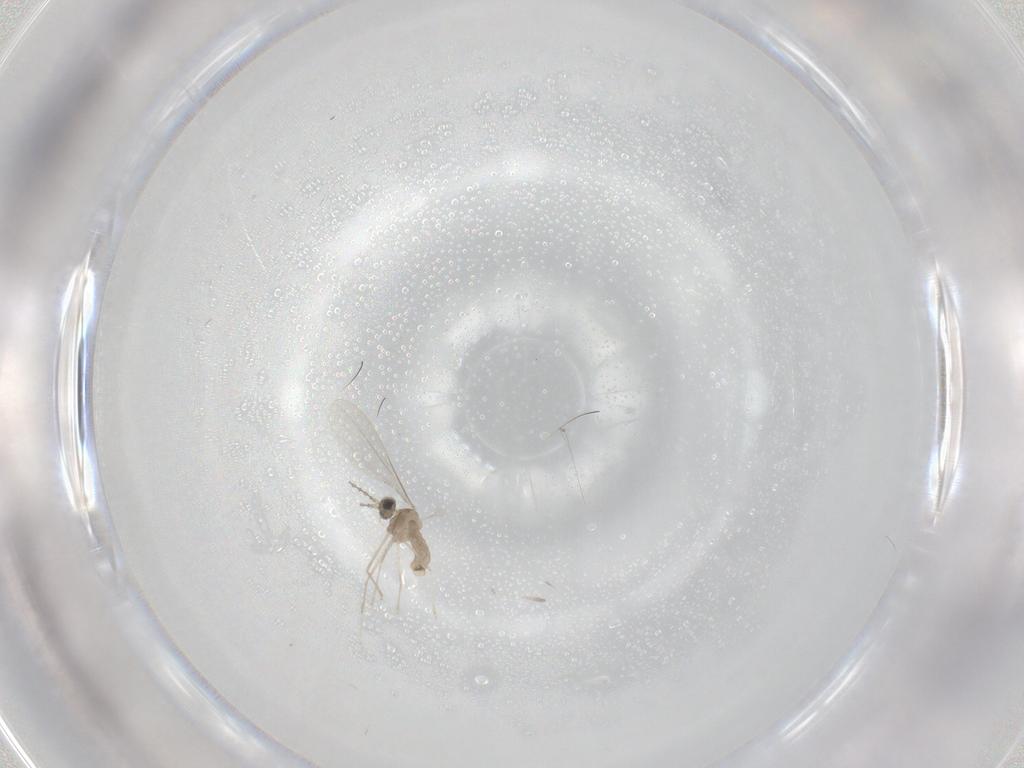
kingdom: Animalia
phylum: Arthropoda
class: Insecta
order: Diptera
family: Cecidomyiidae
